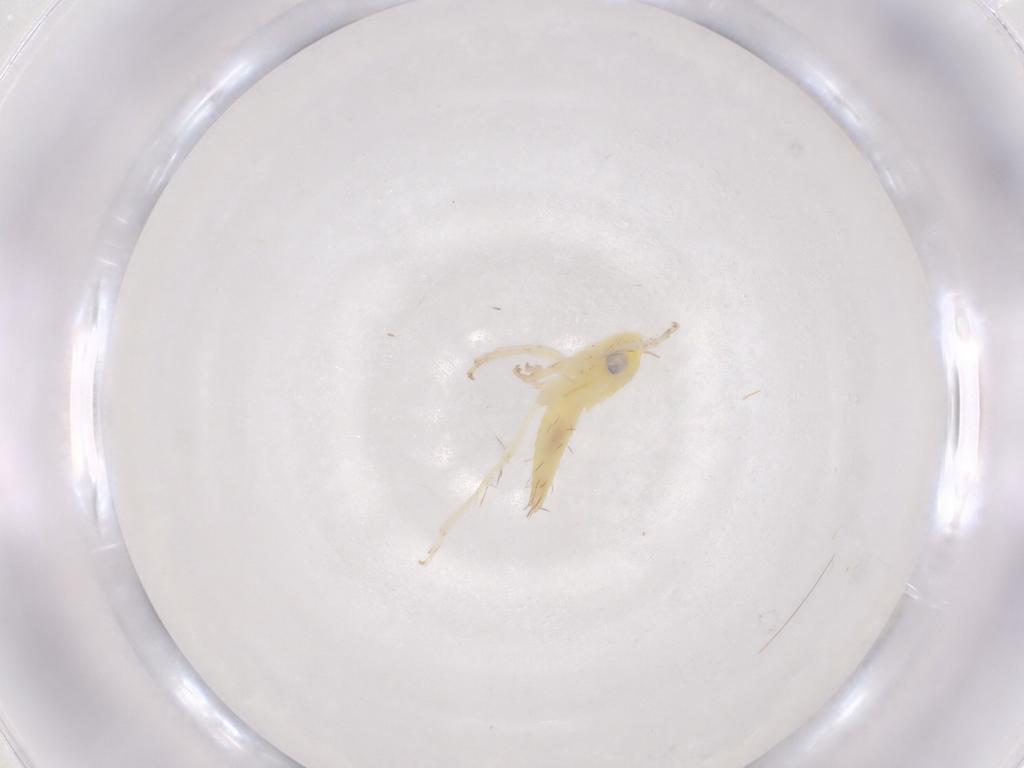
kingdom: Animalia
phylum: Arthropoda
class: Insecta
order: Hemiptera
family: Cicadellidae
